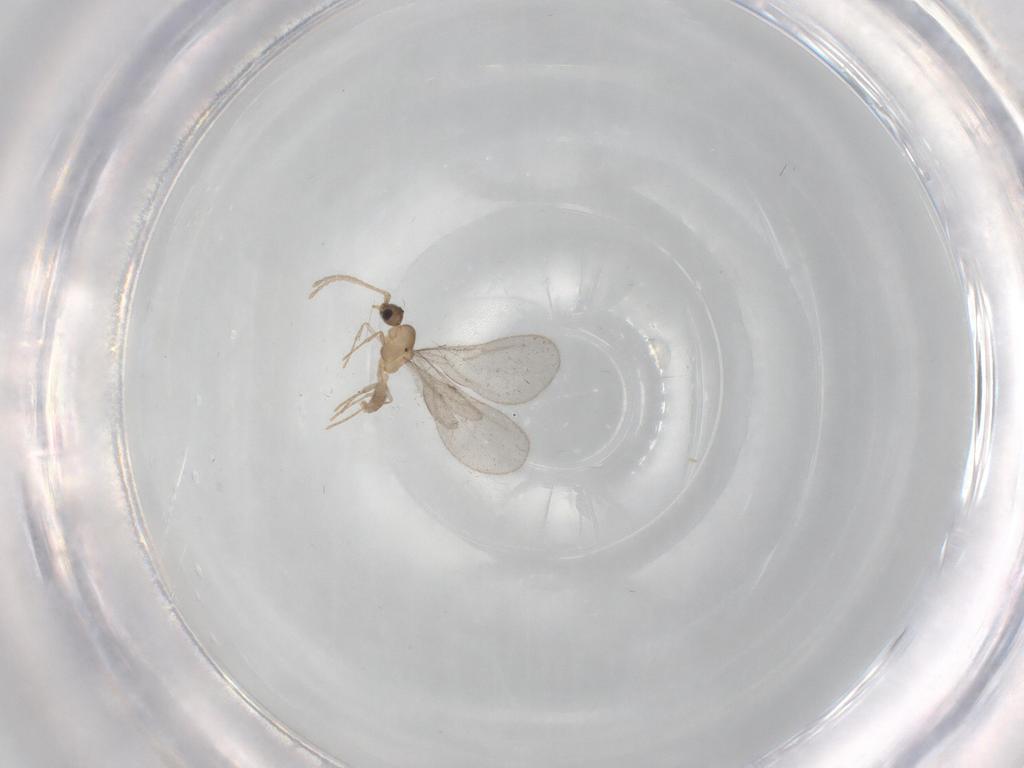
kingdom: Animalia
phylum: Arthropoda
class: Insecta
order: Hymenoptera
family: Formicidae
